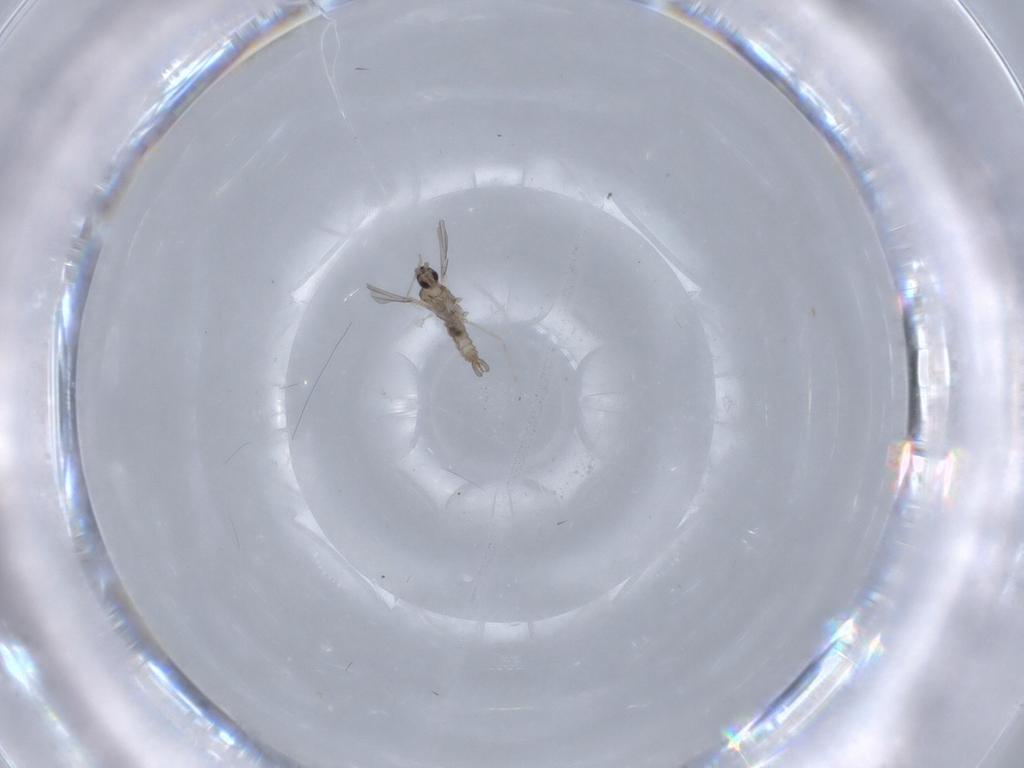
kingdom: Animalia
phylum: Arthropoda
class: Insecta
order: Diptera
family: Cecidomyiidae
